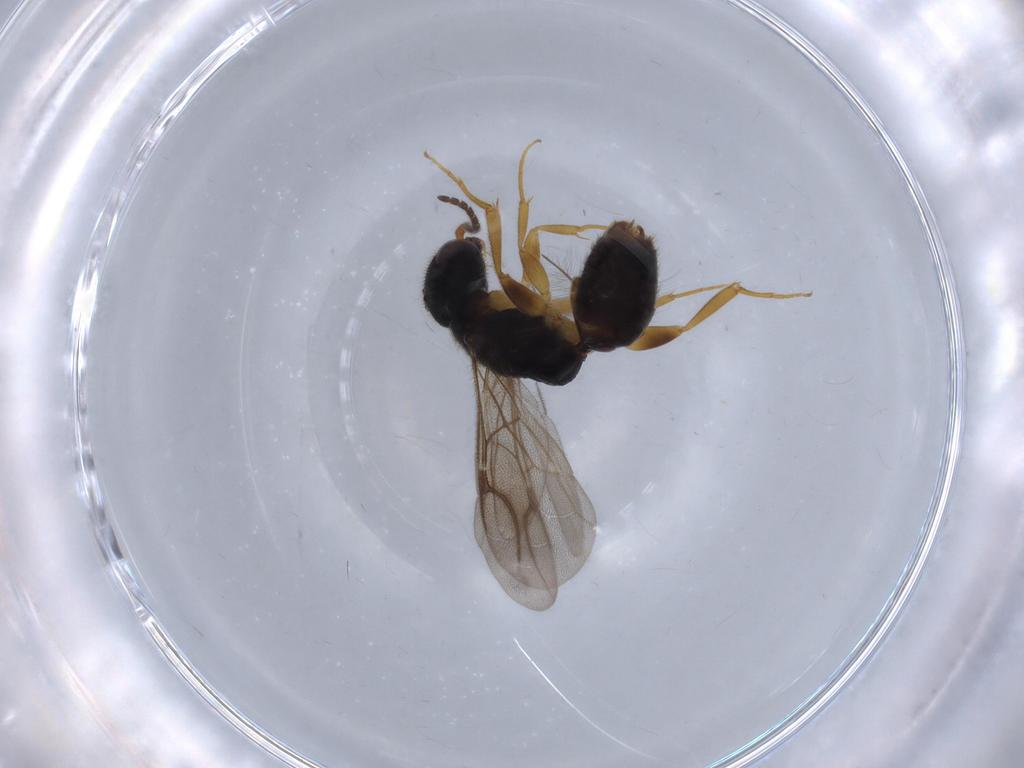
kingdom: Animalia
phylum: Arthropoda
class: Insecta
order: Hymenoptera
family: Bethylidae
